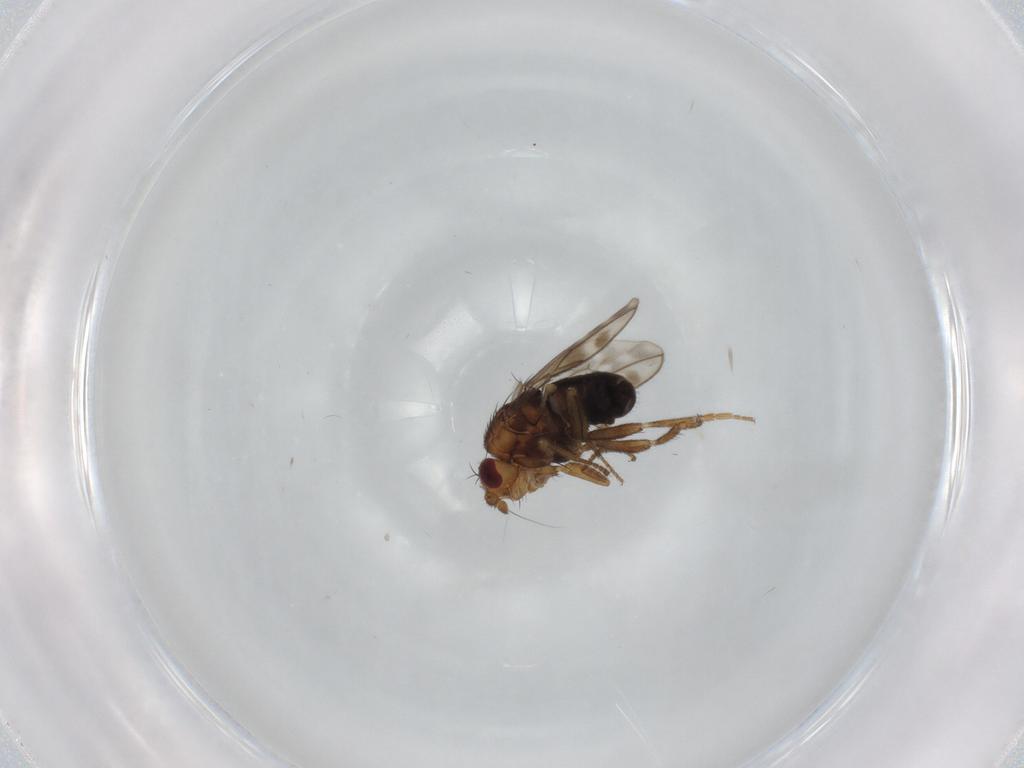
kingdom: Animalia
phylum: Arthropoda
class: Insecta
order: Diptera
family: Sphaeroceridae
